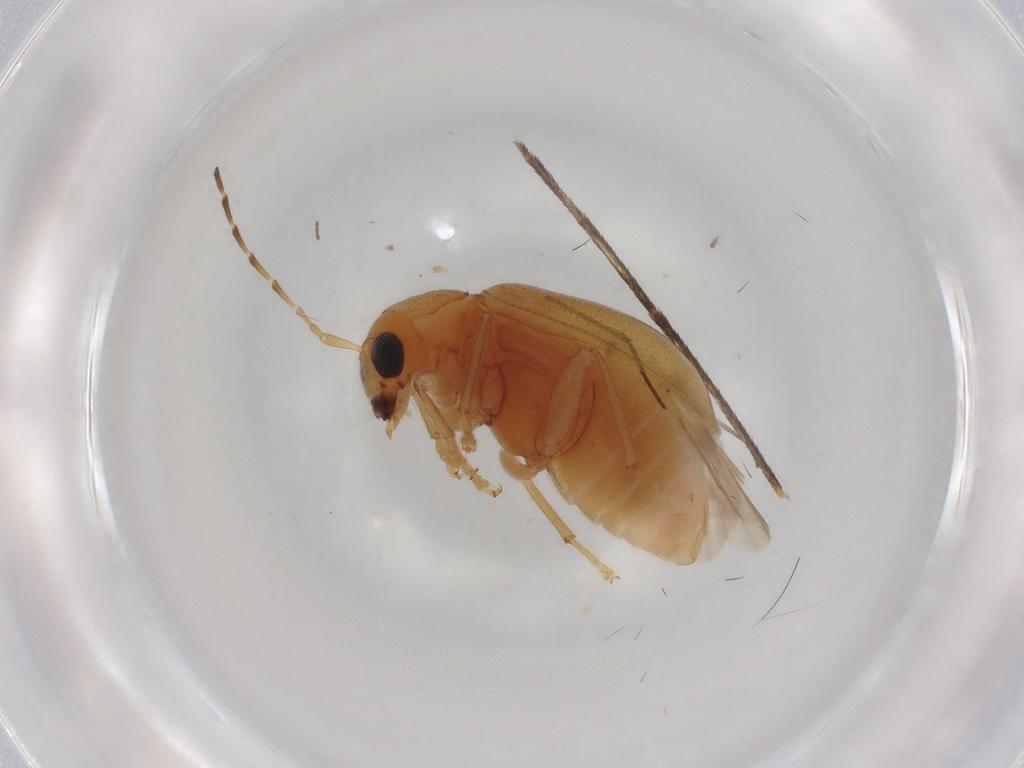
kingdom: Animalia
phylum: Arthropoda
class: Insecta
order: Coleoptera
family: Chrysomelidae
